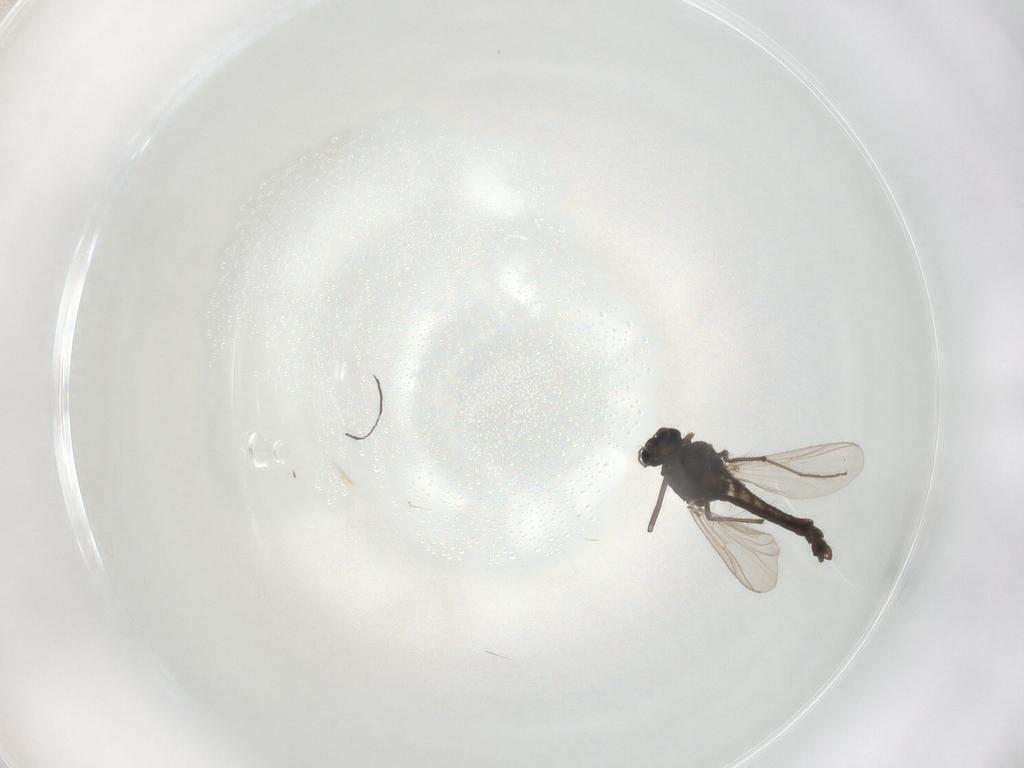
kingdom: Animalia
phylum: Arthropoda
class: Insecta
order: Diptera
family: Chironomidae
